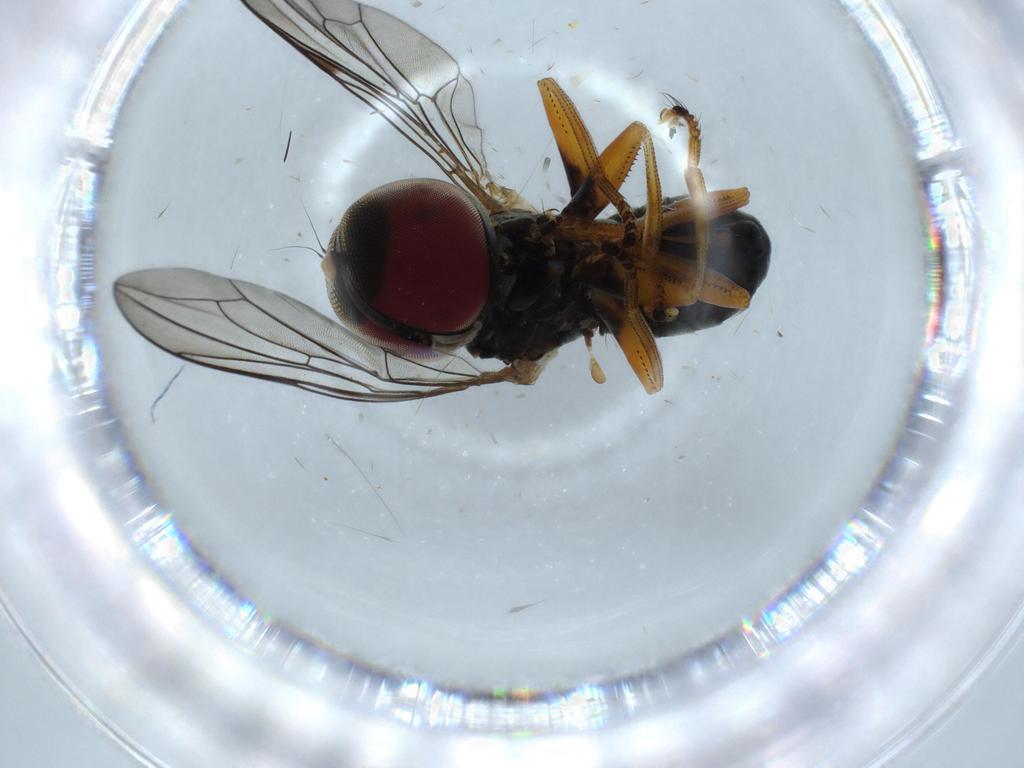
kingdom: Animalia
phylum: Arthropoda
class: Insecta
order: Diptera
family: Pipunculidae
